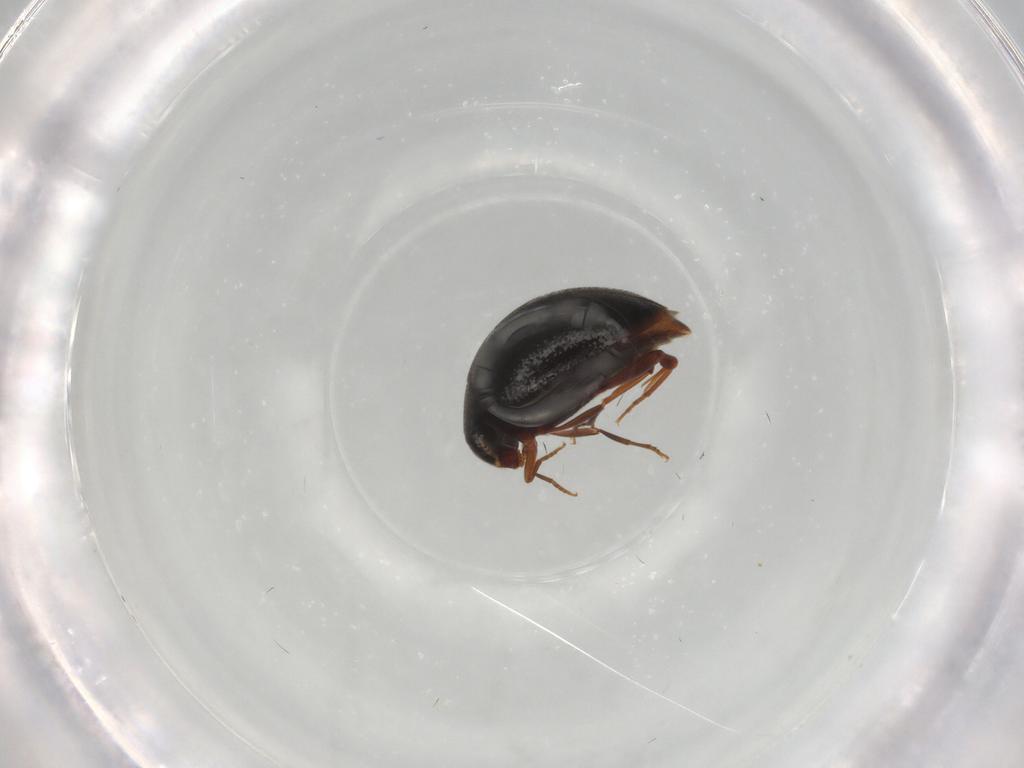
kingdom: Animalia
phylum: Arthropoda
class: Insecta
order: Coleoptera
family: Melandryidae
